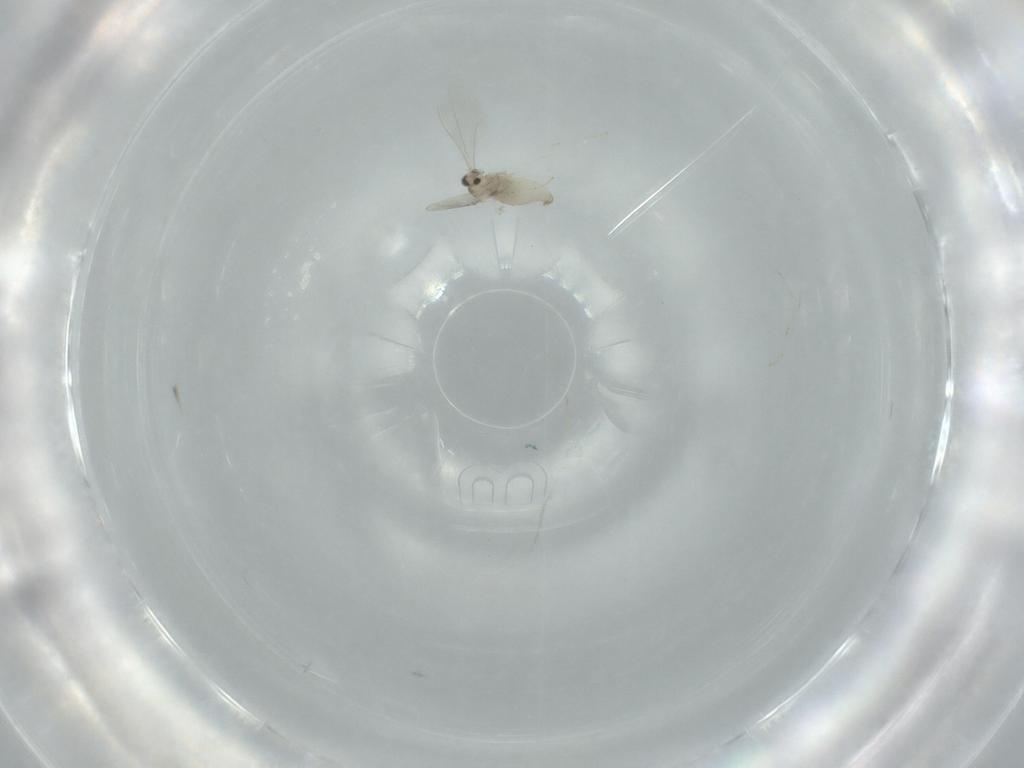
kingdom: Animalia
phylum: Arthropoda
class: Insecta
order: Diptera
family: Cecidomyiidae
